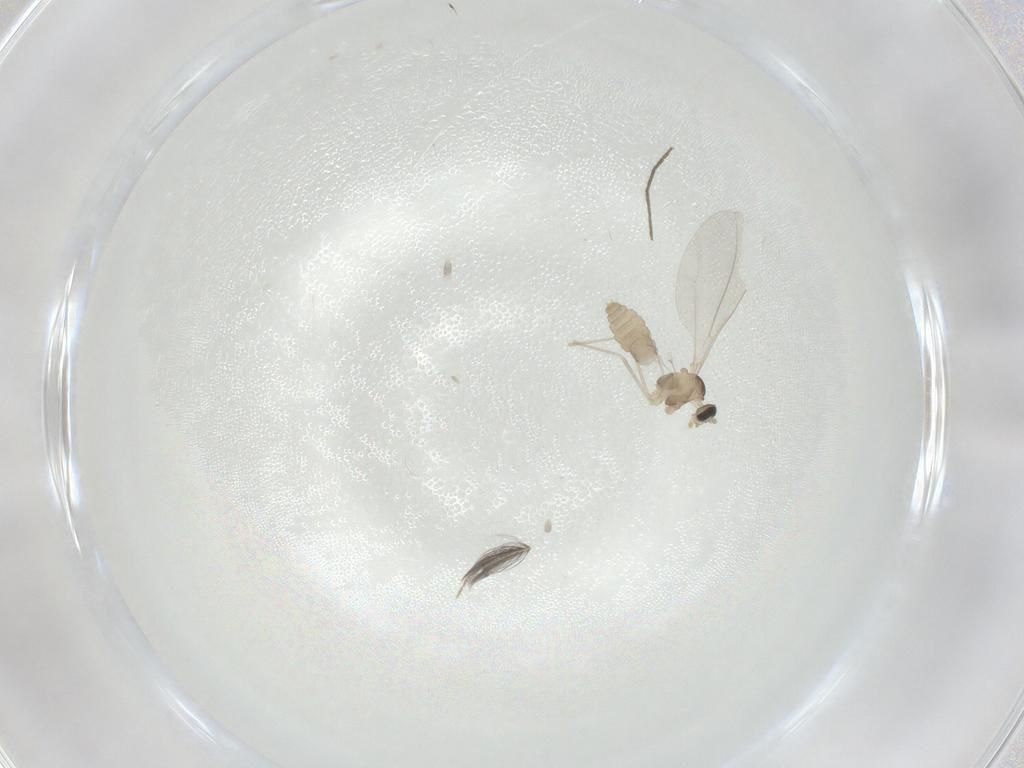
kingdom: Animalia
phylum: Arthropoda
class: Insecta
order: Diptera
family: Cecidomyiidae
